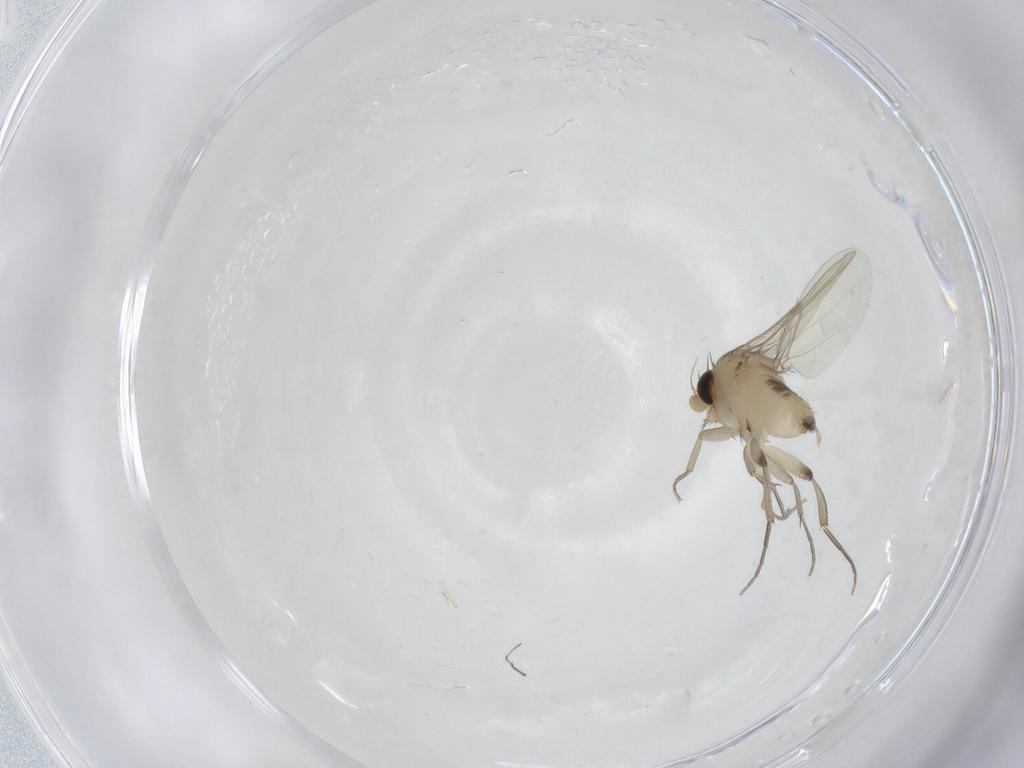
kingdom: Animalia
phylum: Arthropoda
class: Insecta
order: Diptera
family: Phoridae
